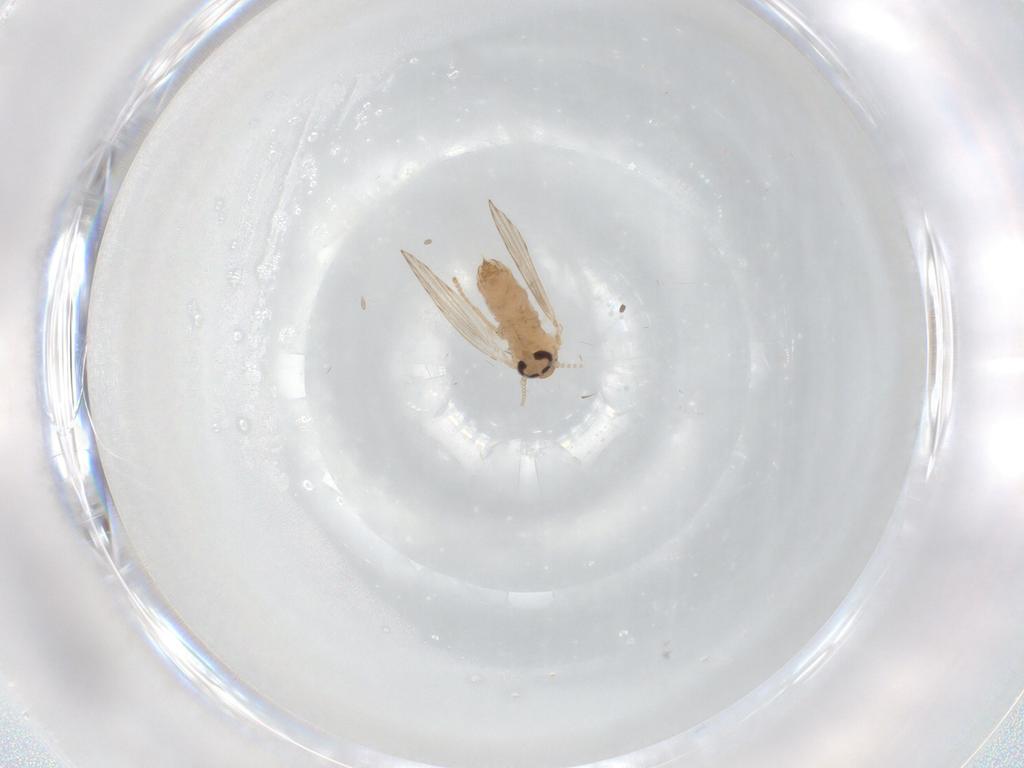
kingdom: Animalia
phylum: Arthropoda
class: Insecta
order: Diptera
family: Psychodidae
